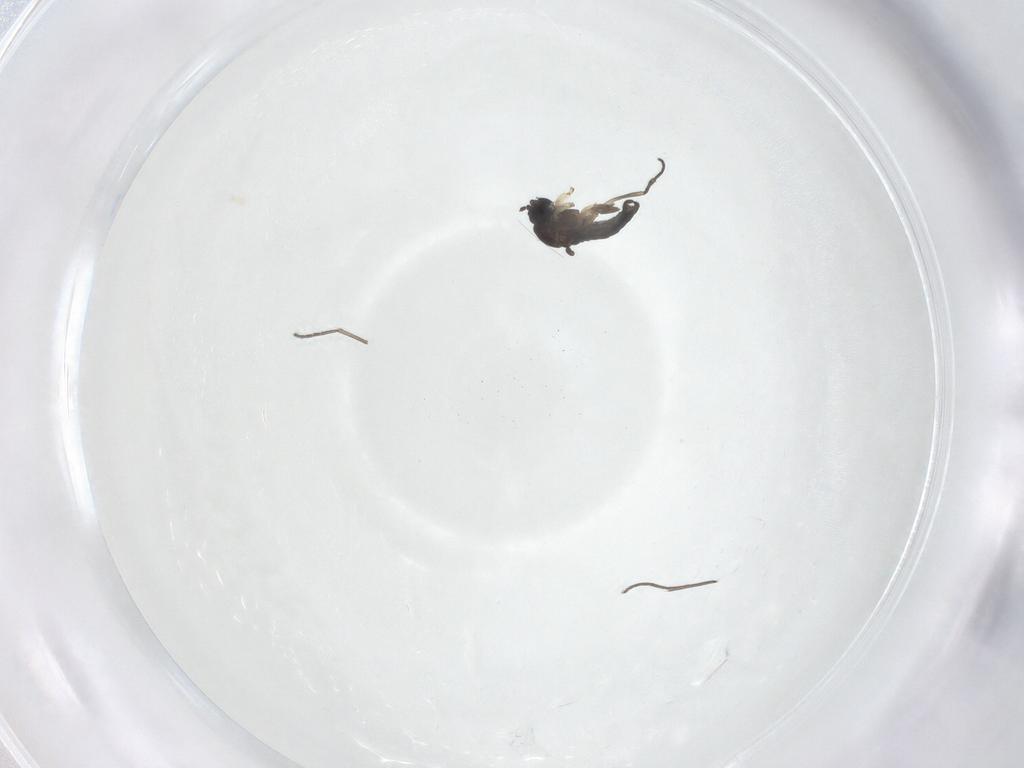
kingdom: Animalia
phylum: Arthropoda
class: Insecta
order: Diptera
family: Sciaridae
